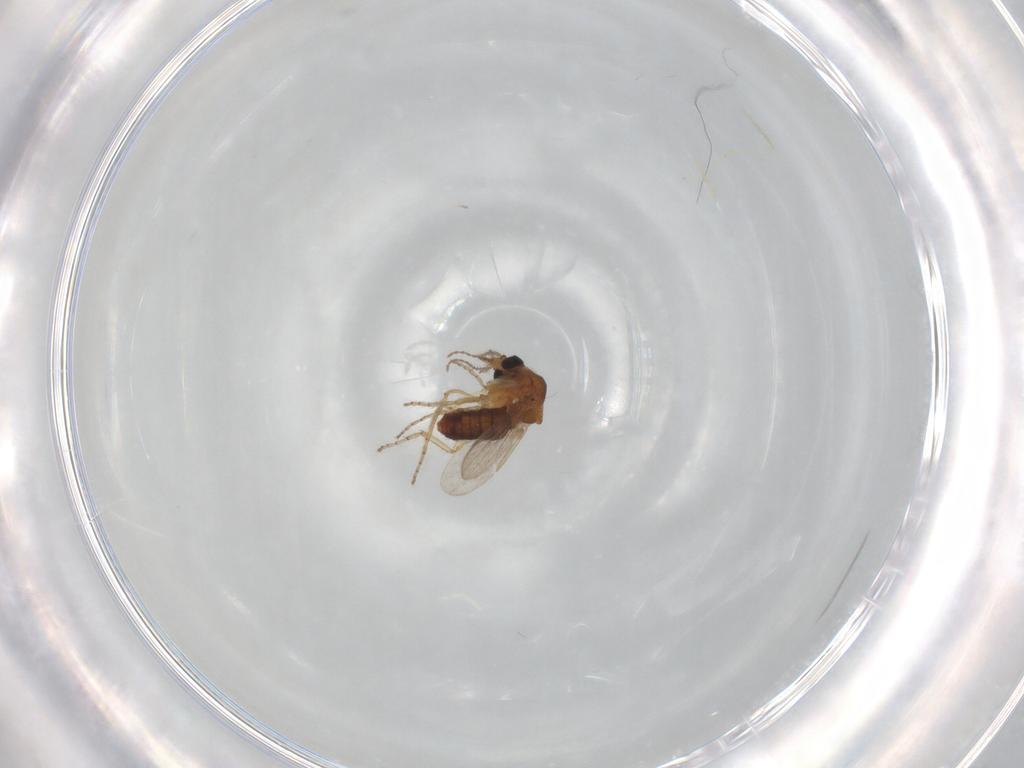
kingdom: Animalia
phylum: Arthropoda
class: Insecta
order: Diptera
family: Ceratopogonidae
